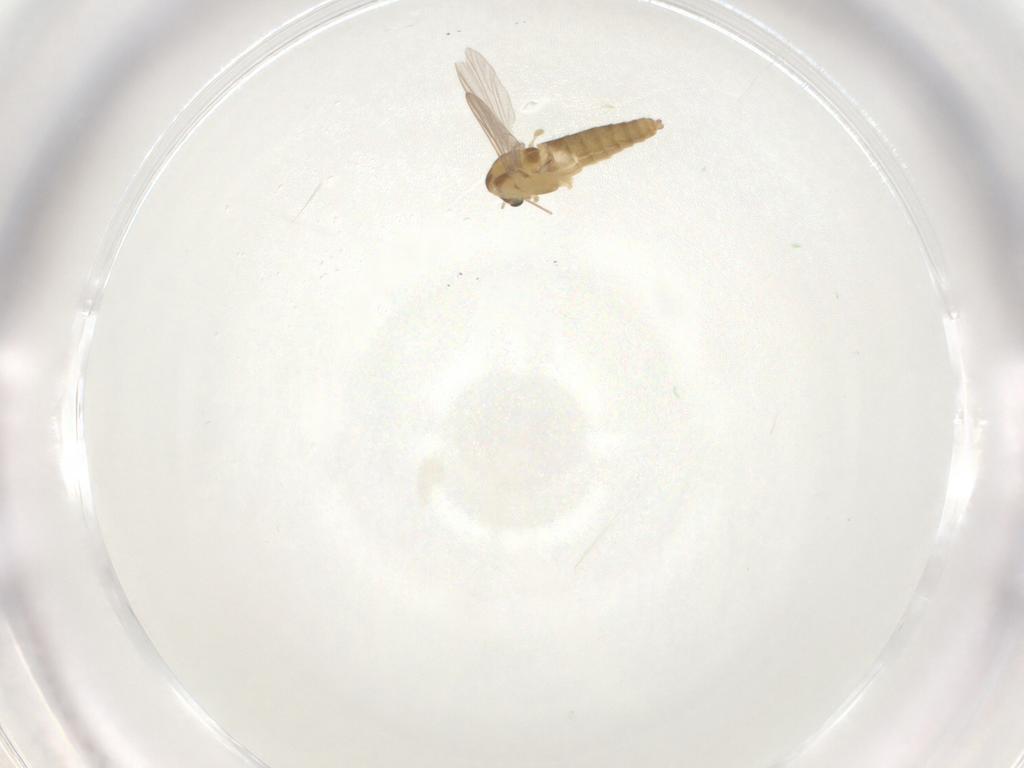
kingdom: Animalia
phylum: Arthropoda
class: Insecta
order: Diptera
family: Chironomidae
